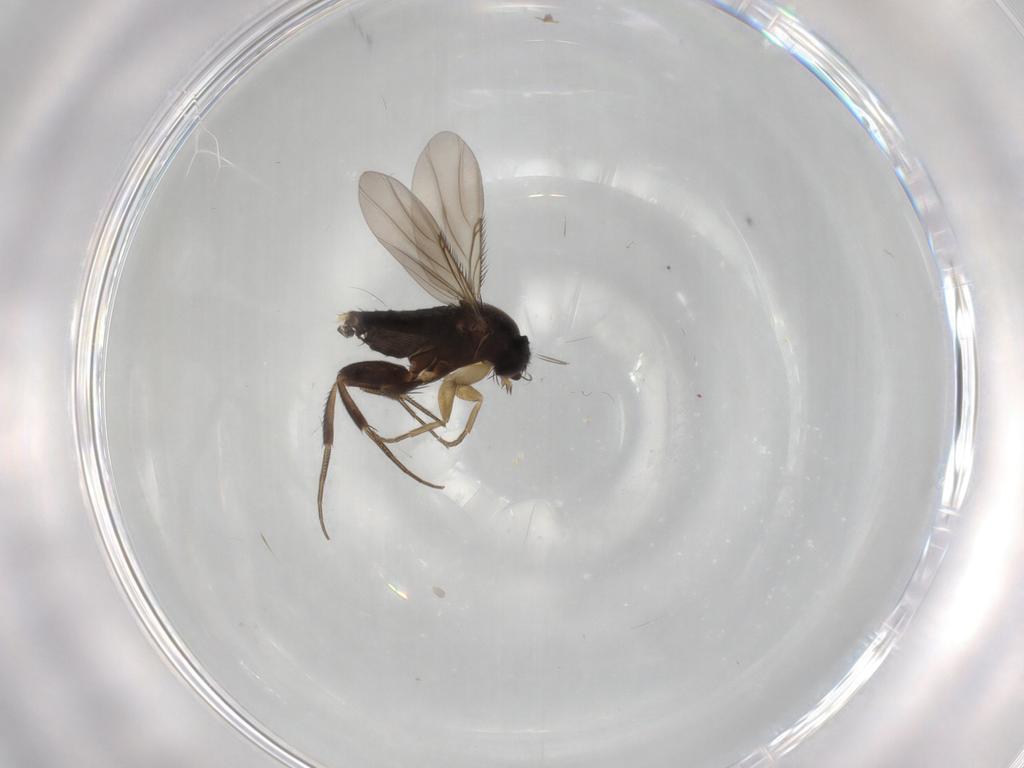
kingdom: Animalia
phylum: Arthropoda
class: Insecta
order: Diptera
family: Phoridae
